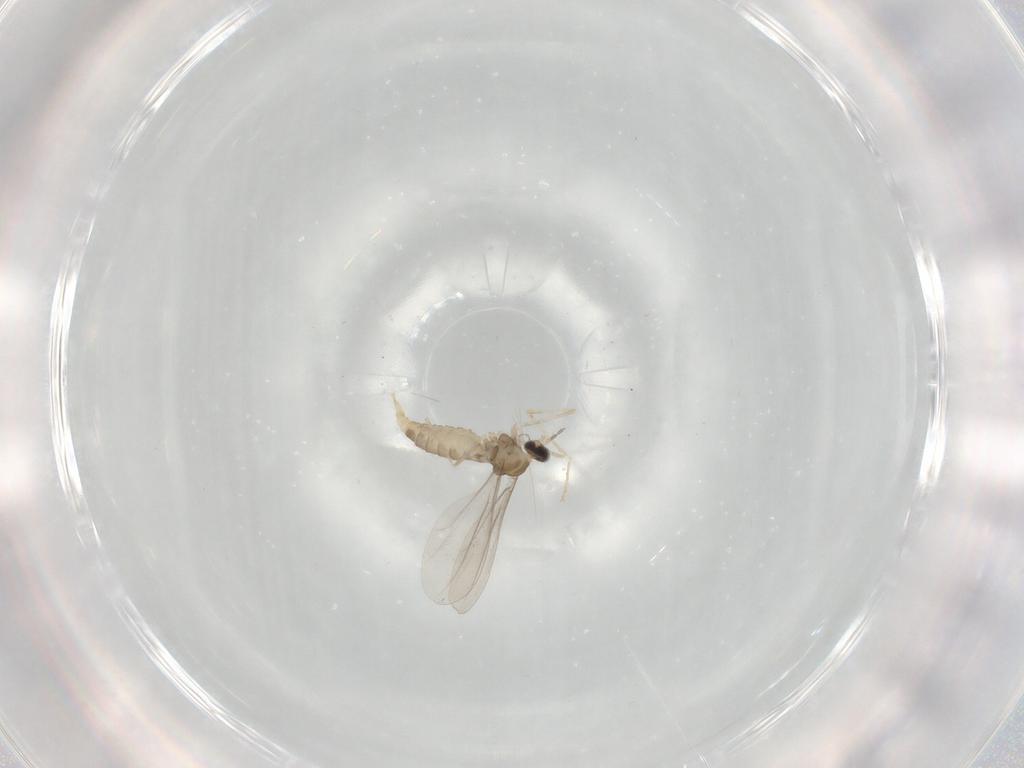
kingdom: Animalia
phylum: Arthropoda
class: Insecta
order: Diptera
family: Cecidomyiidae
